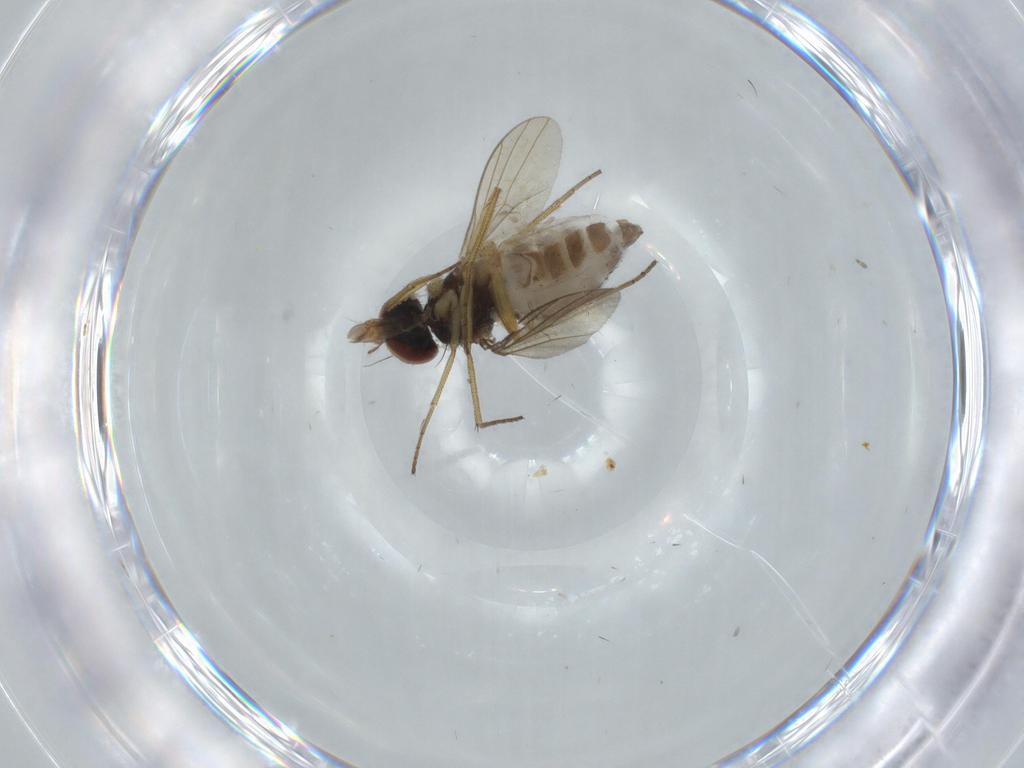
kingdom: Animalia
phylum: Arthropoda
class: Insecta
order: Diptera
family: Dolichopodidae
